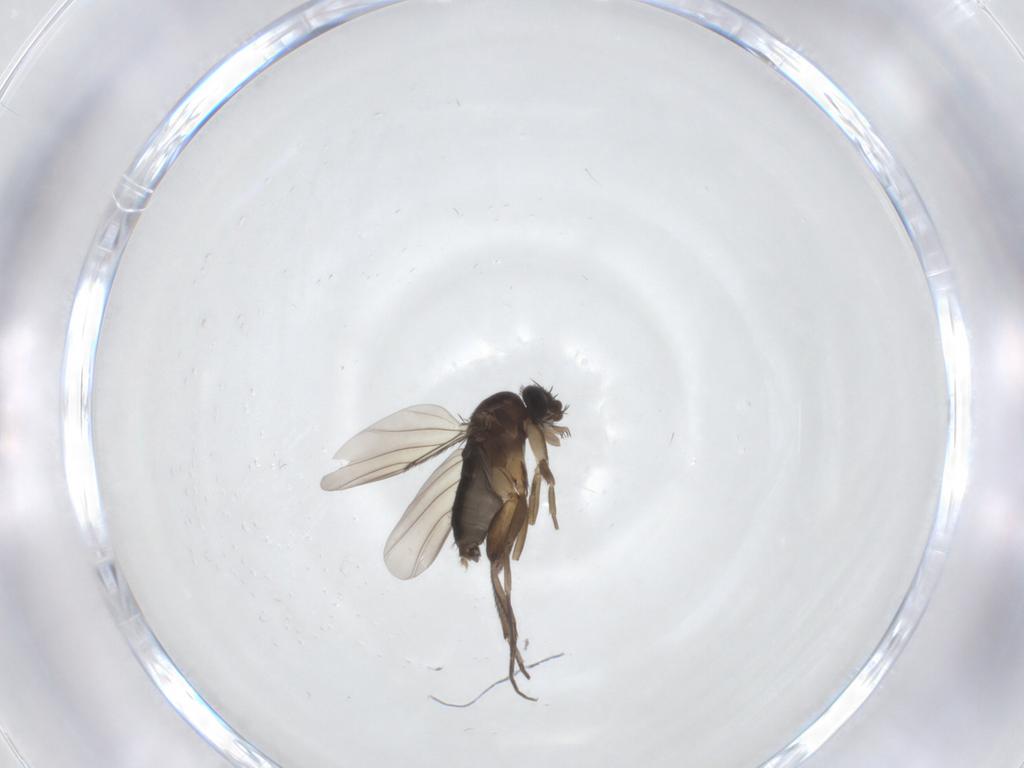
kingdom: Animalia
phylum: Arthropoda
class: Insecta
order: Diptera
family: Phoridae
